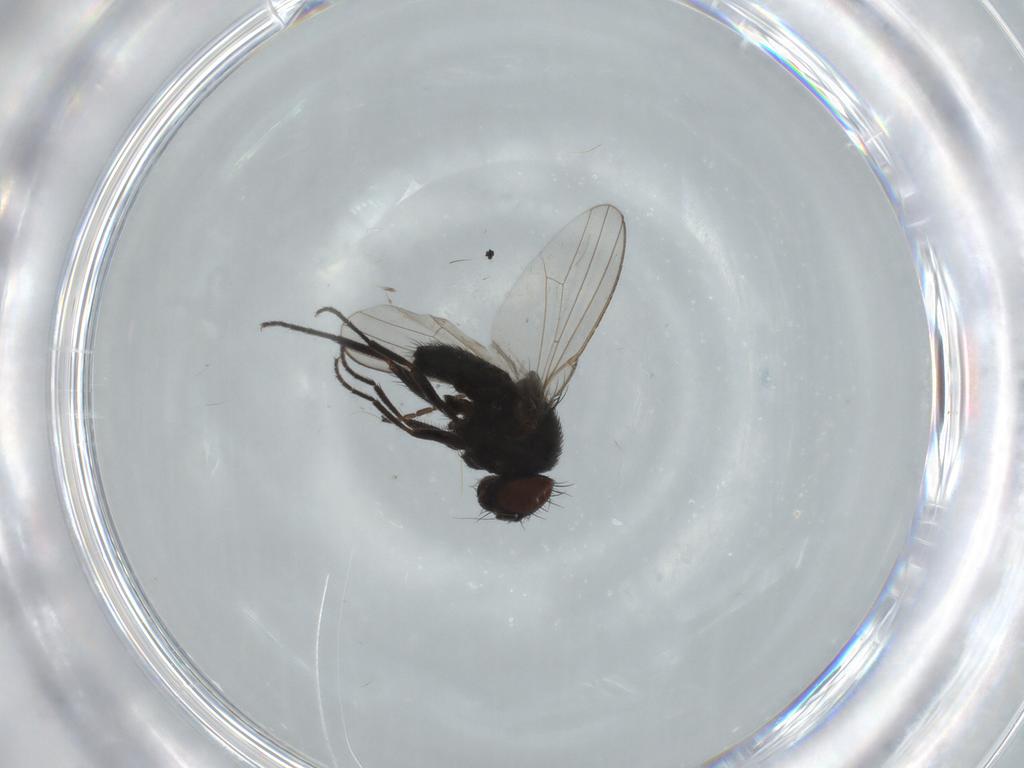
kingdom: Animalia
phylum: Arthropoda
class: Insecta
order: Diptera
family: Milichiidae
